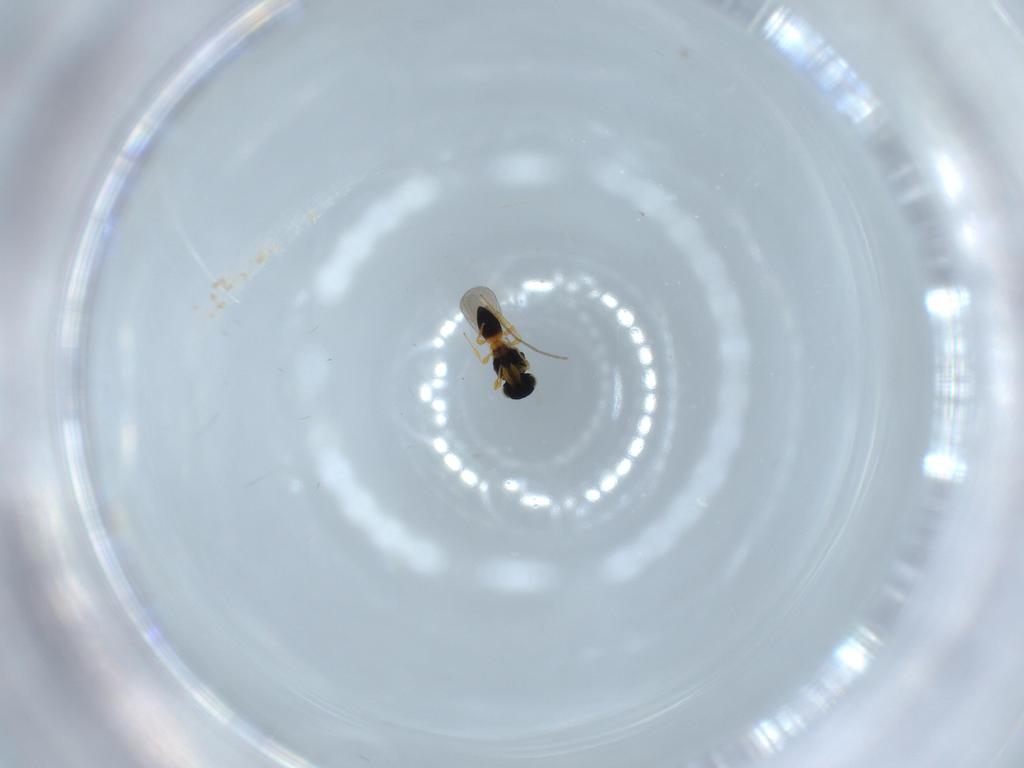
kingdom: Animalia
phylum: Arthropoda
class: Insecta
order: Hymenoptera
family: Platygastridae
